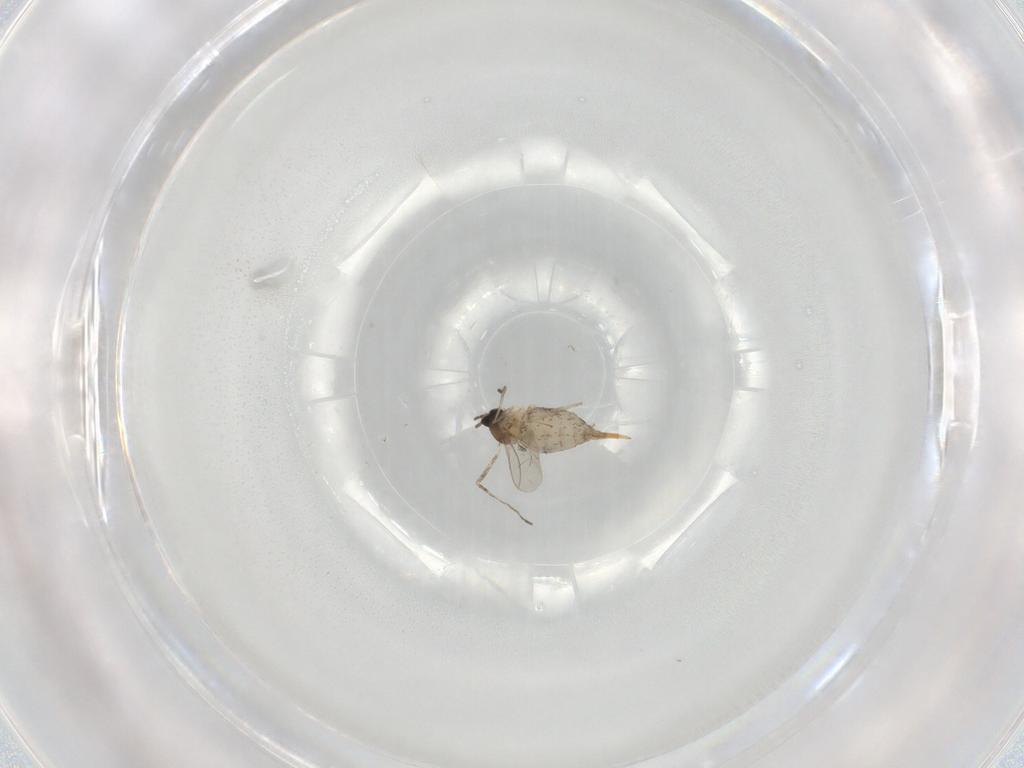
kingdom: Animalia
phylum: Arthropoda
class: Insecta
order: Diptera
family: Cecidomyiidae
